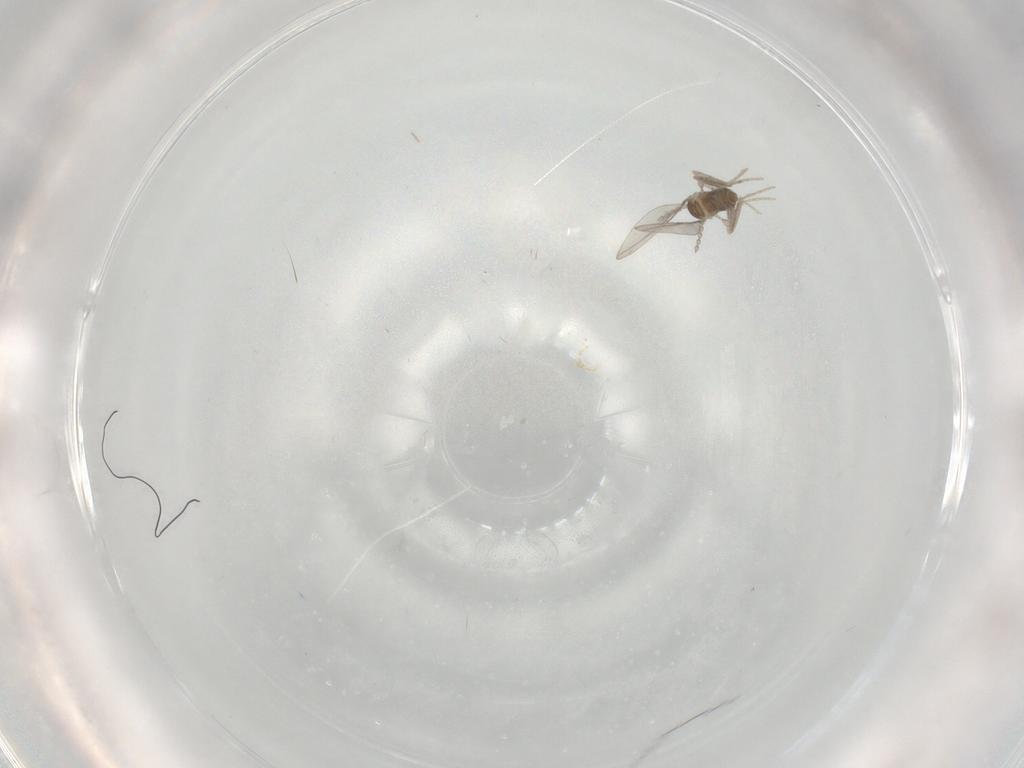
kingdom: Animalia
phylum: Arthropoda
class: Insecta
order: Diptera
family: Cecidomyiidae
